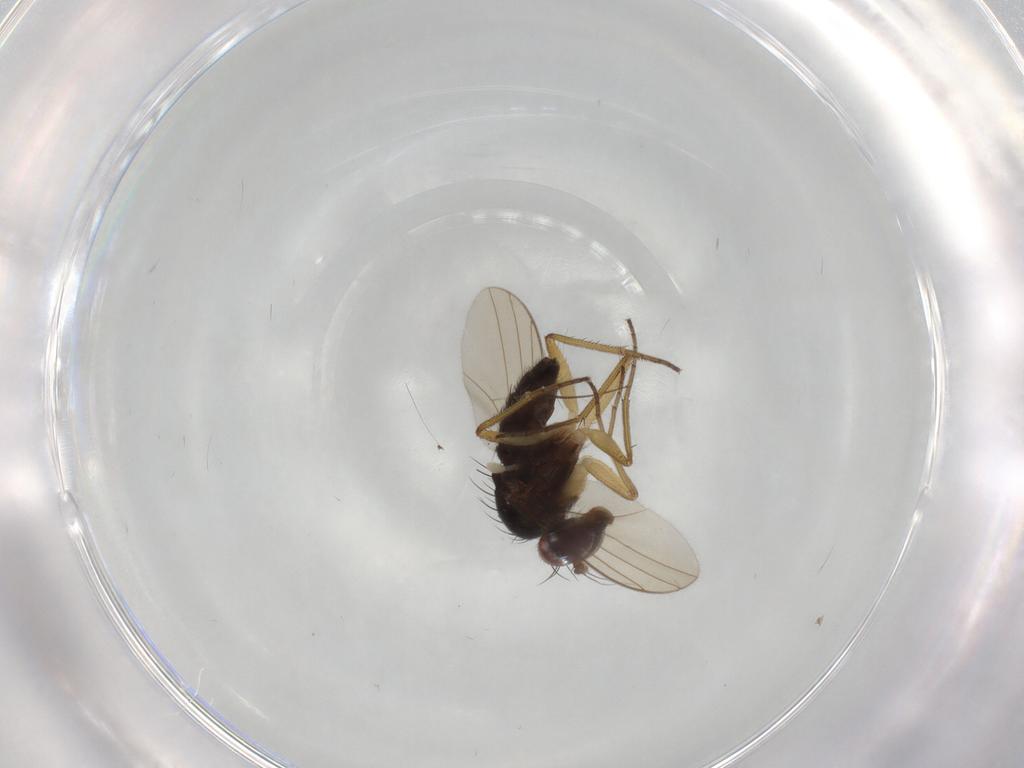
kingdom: Animalia
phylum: Arthropoda
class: Insecta
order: Diptera
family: Dolichopodidae
